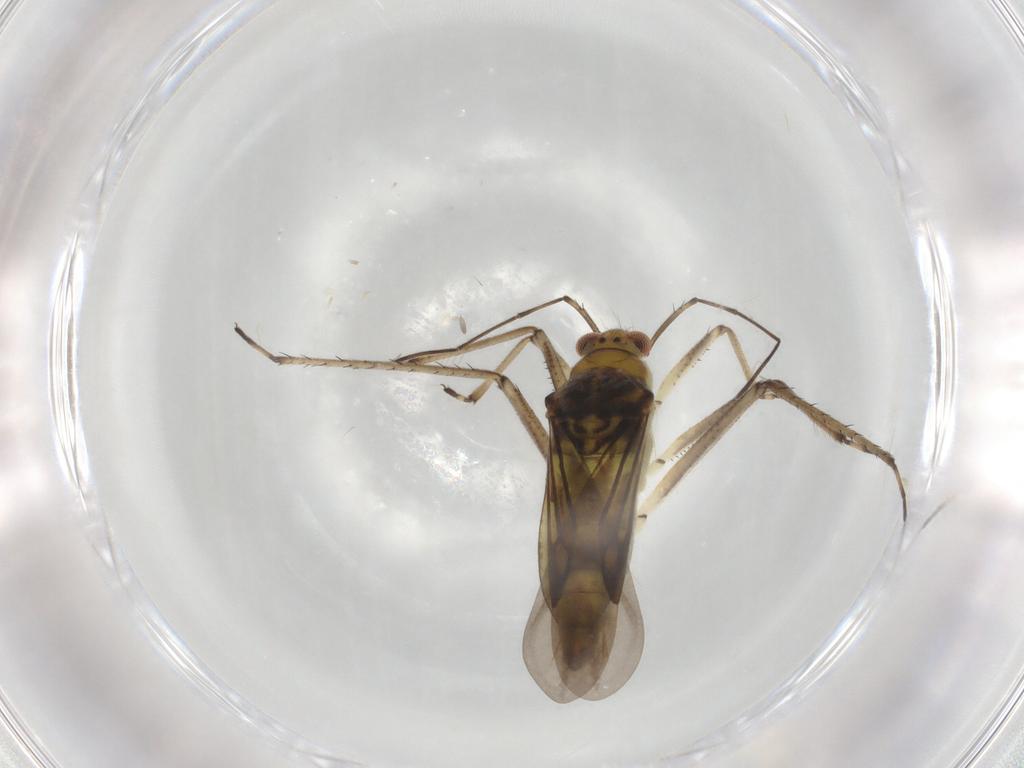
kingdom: Animalia
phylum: Arthropoda
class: Insecta
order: Hemiptera
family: Mesoveliidae
